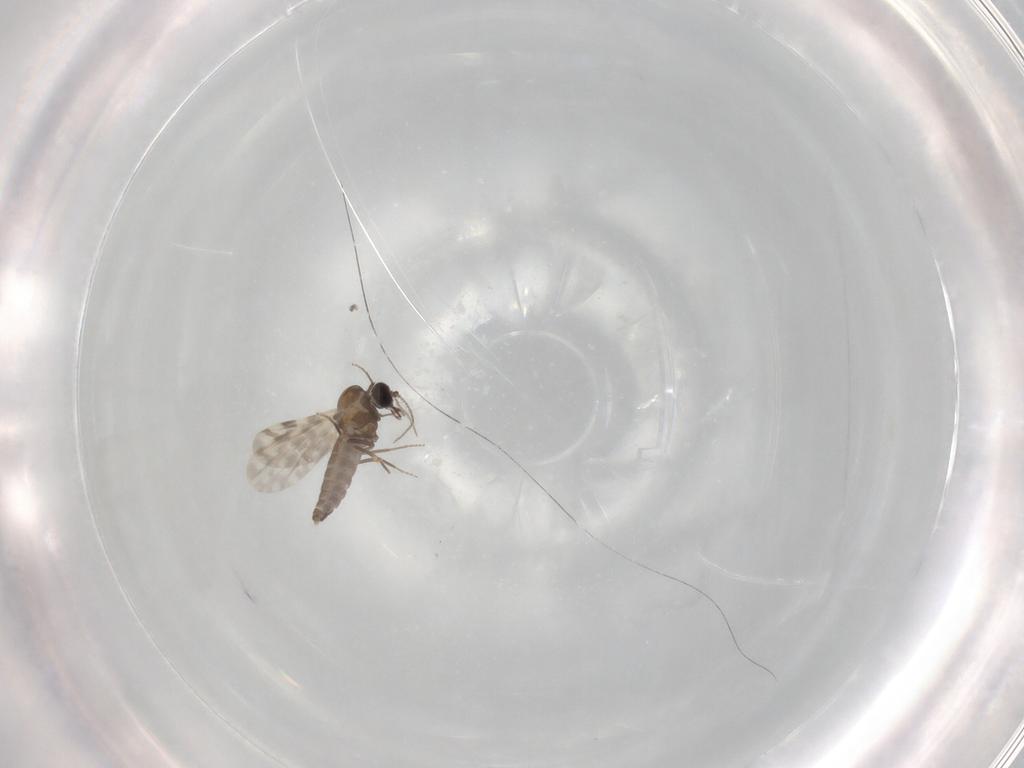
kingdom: Animalia
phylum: Arthropoda
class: Insecta
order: Diptera
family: Ceratopogonidae
